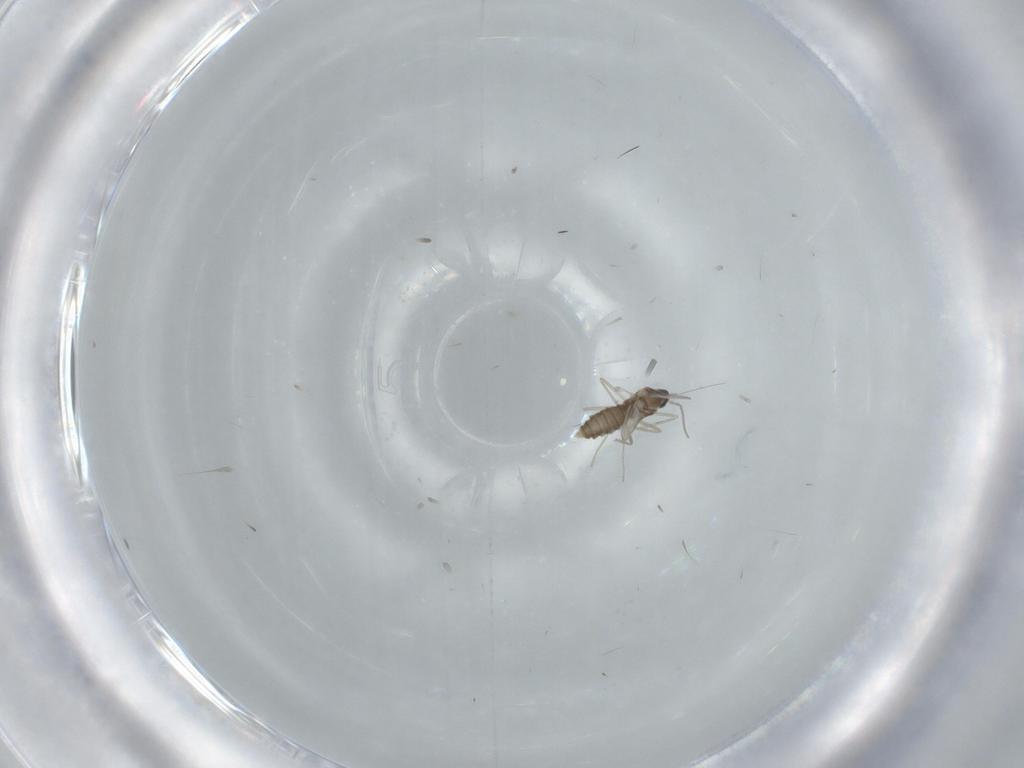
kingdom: Animalia
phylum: Arthropoda
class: Insecta
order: Diptera
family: Cecidomyiidae
